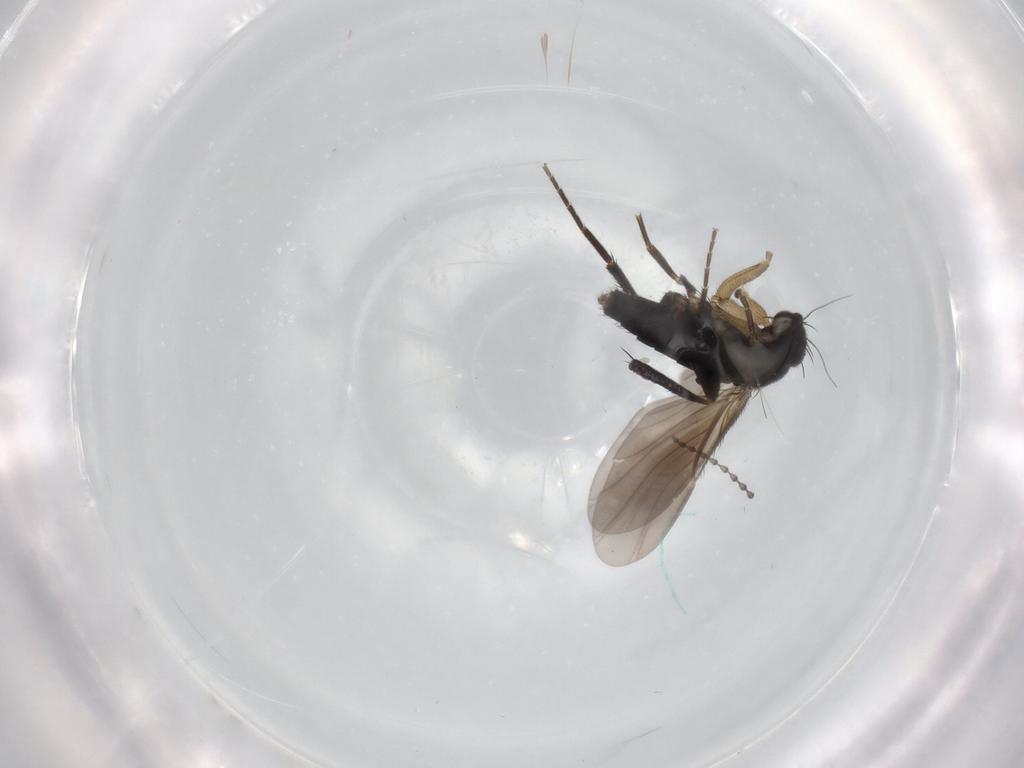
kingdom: Animalia
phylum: Arthropoda
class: Insecta
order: Diptera
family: Phoridae
